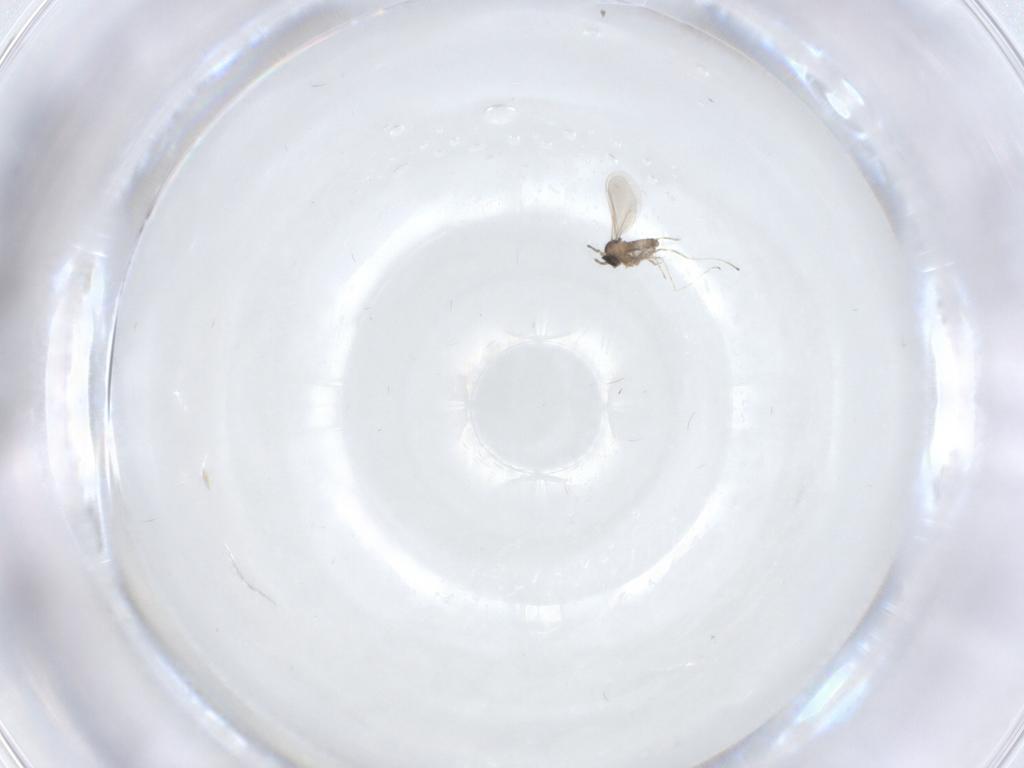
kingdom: Animalia
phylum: Arthropoda
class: Insecta
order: Diptera
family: Cecidomyiidae
